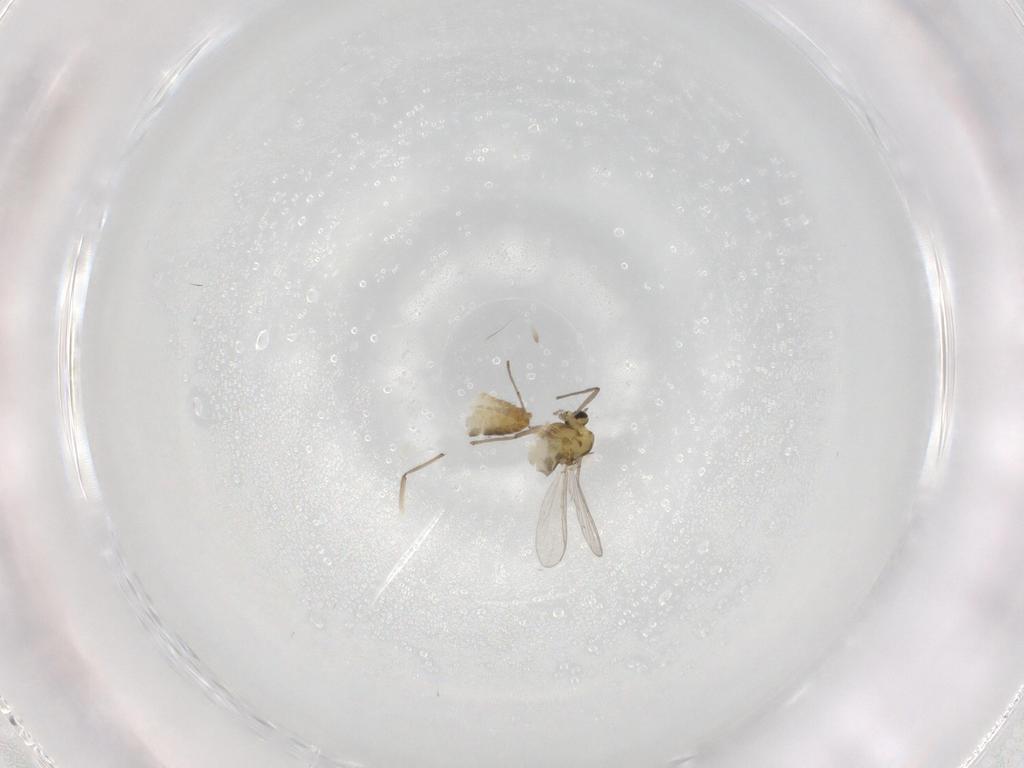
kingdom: Animalia
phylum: Arthropoda
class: Insecta
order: Diptera
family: Chironomidae
